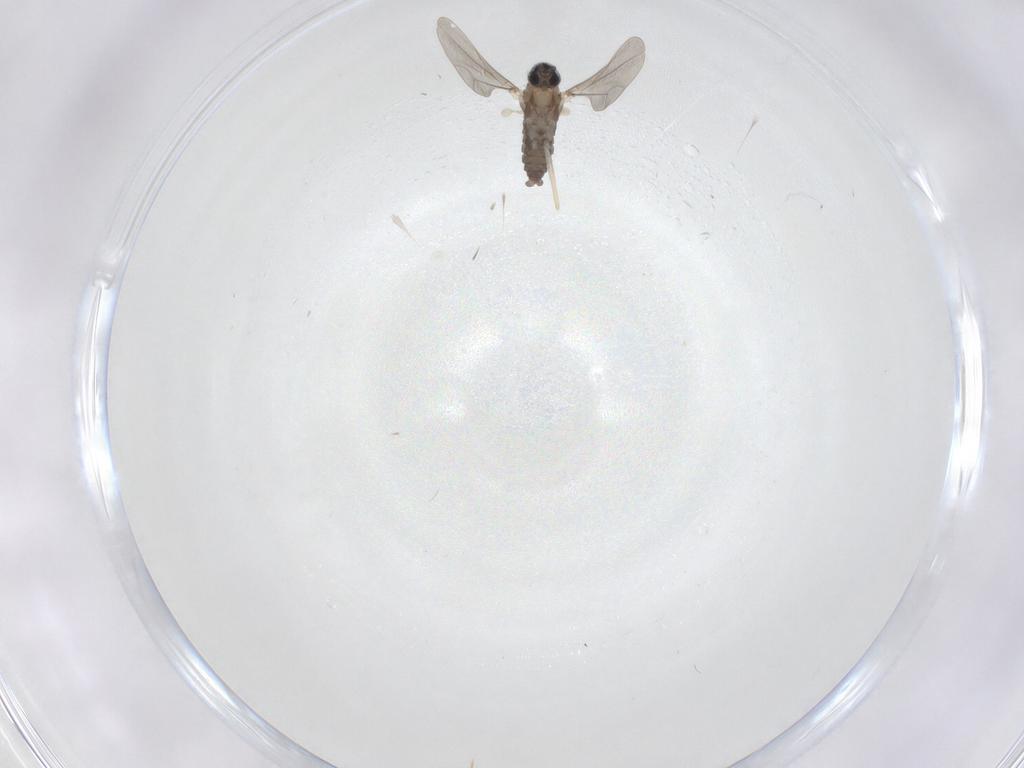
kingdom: Animalia
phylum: Arthropoda
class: Insecta
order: Diptera
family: Cecidomyiidae
